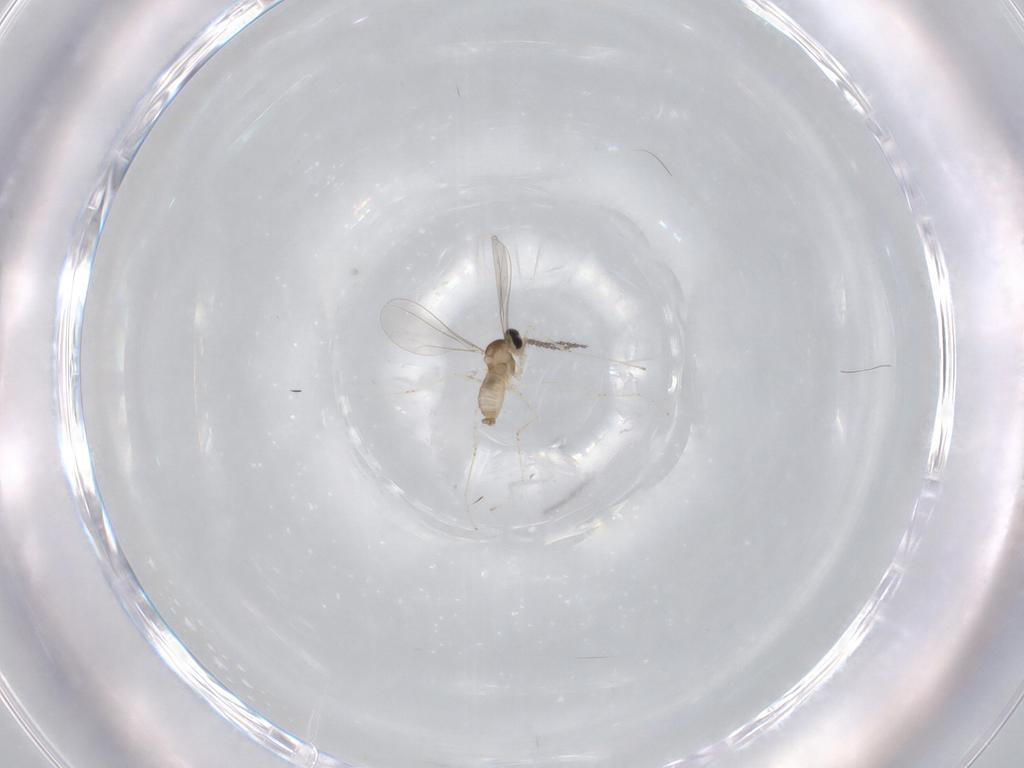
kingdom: Animalia
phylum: Arthropoda
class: Insecta
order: Diptera
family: Cecidomyiidae
